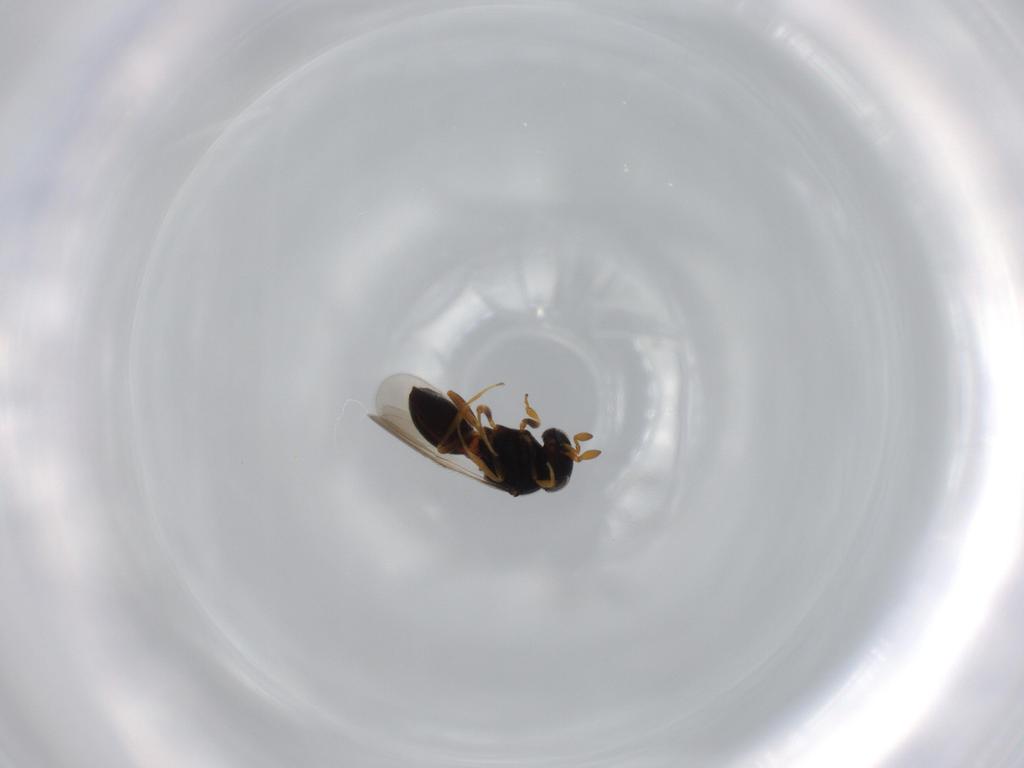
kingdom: Animalia
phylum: Arthropoda
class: Insecta
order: Hymenoptera
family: Scelionidae
